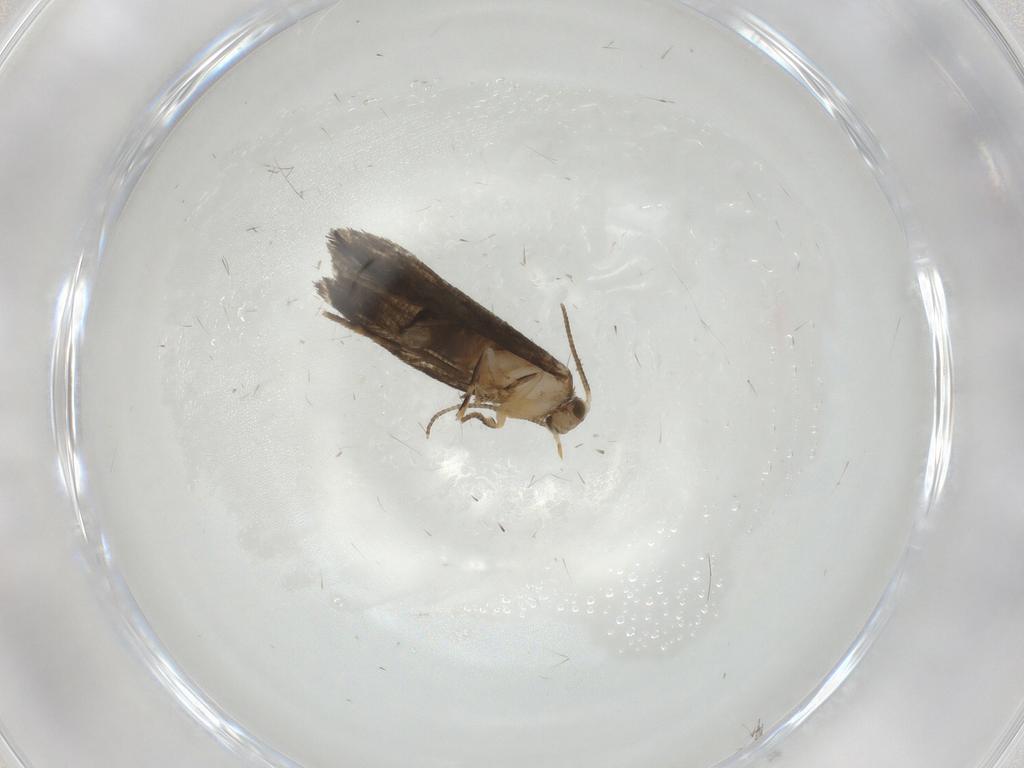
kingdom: Animalia
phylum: Arthropoda
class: Insecta
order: Lepidoptera
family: Tineidae
